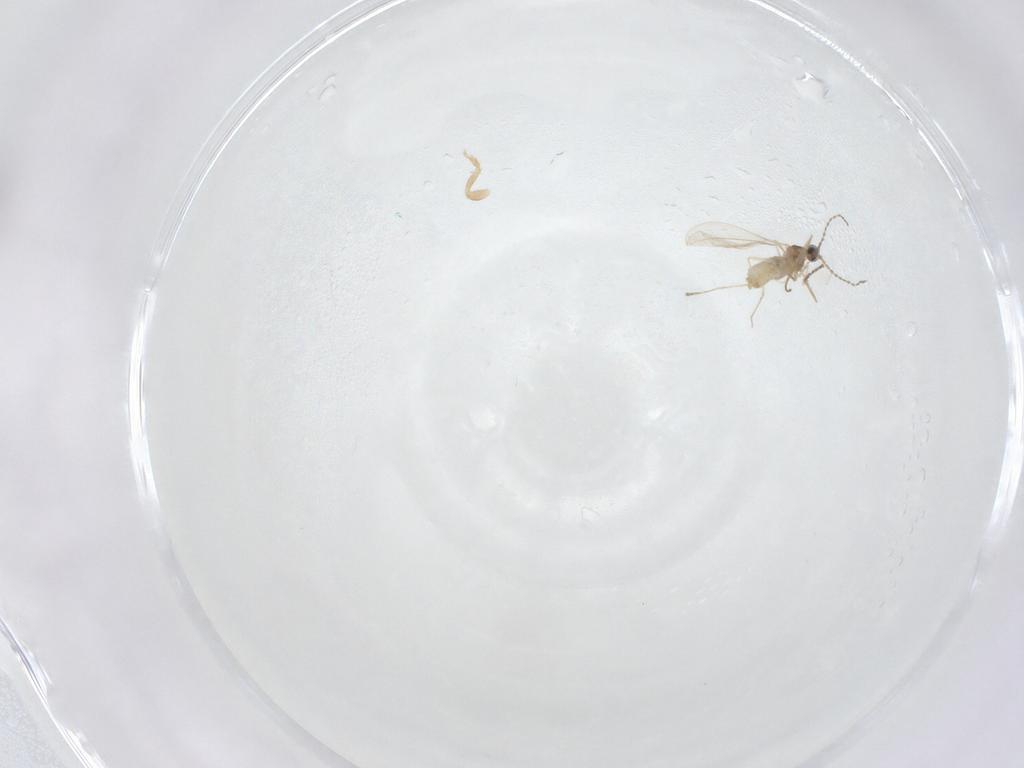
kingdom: Animalia
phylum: Arthropoda
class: Insecta
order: Diptera
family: Cecidomyiidae
